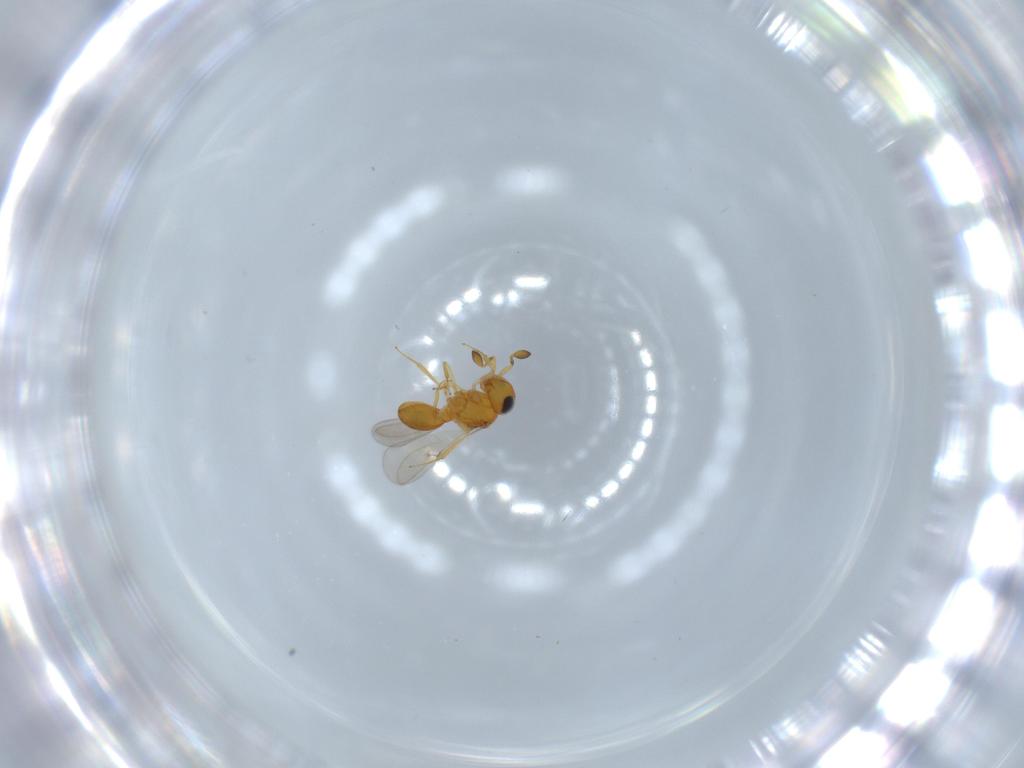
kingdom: Animalia
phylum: Arthropoda
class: Insecta
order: Hymenoptera
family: Scelionidae
